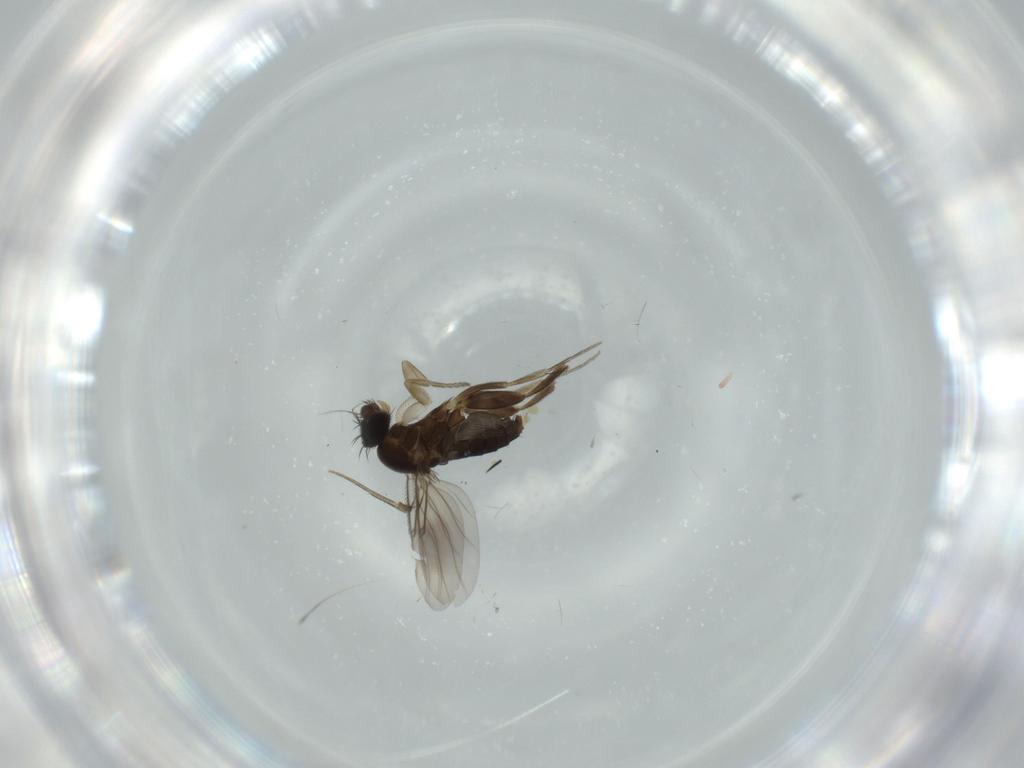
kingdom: Animalia
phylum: Arthropoda
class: Insecta
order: Diptera
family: Phoridae
